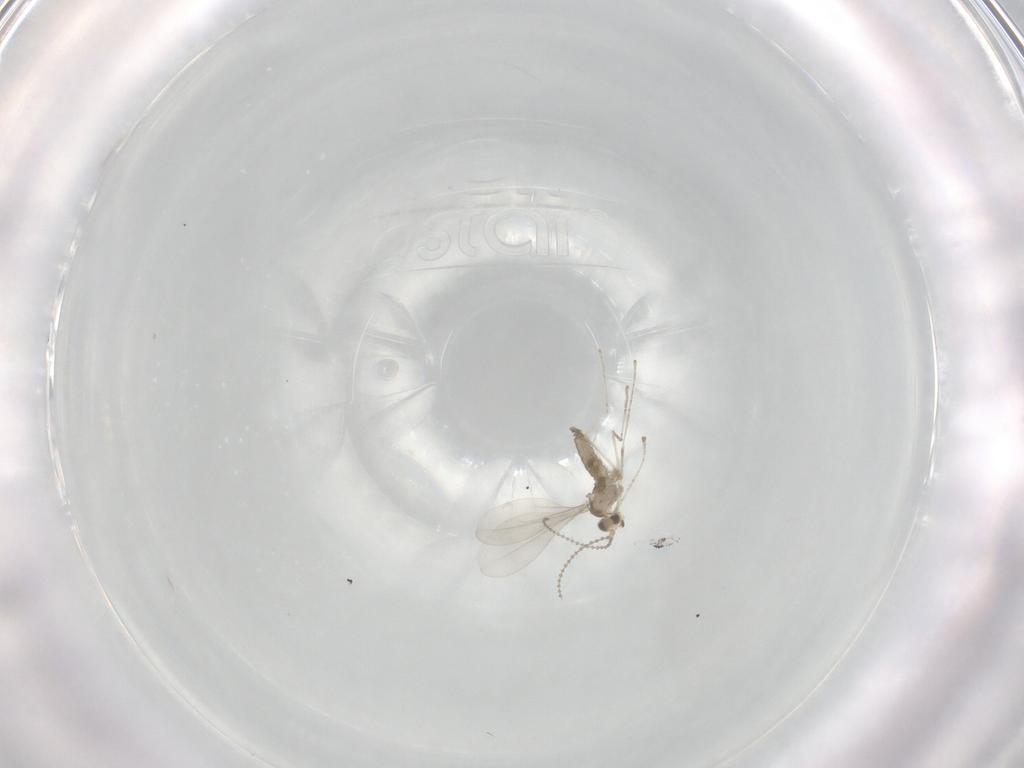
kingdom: Animalia
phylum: Arthropoda
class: Insecta
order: Diptera
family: Cecidomyiidae
